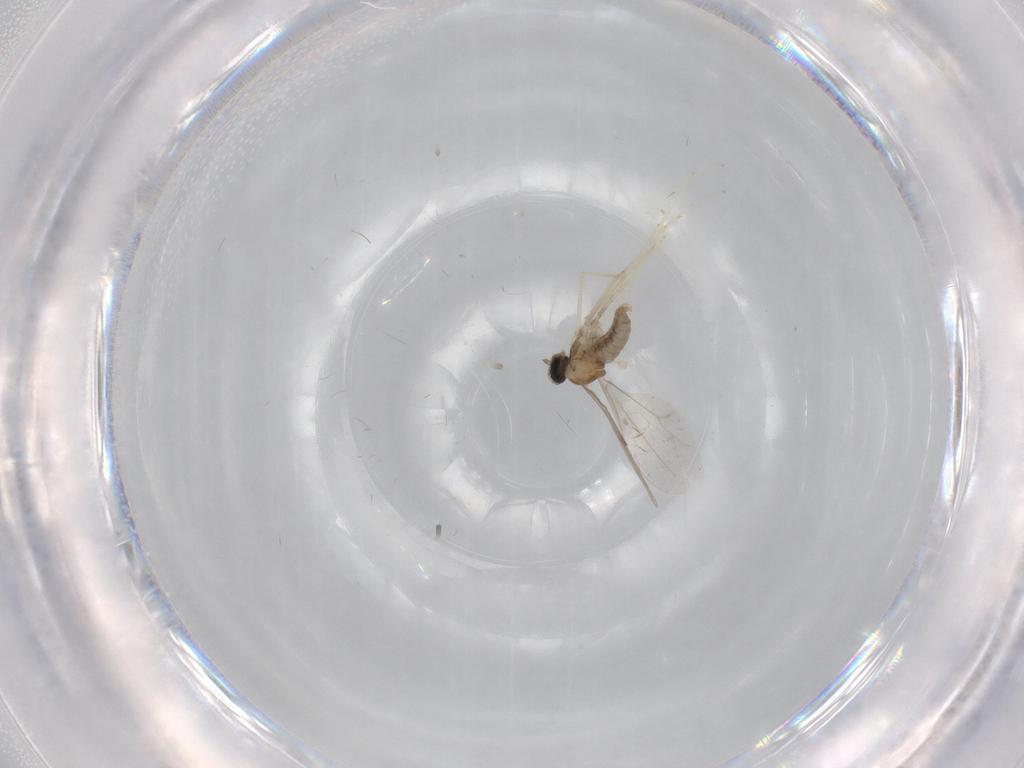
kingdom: Animalia
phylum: Arthropoda
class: Insecta
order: Diptera
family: Cecidomyiidae
